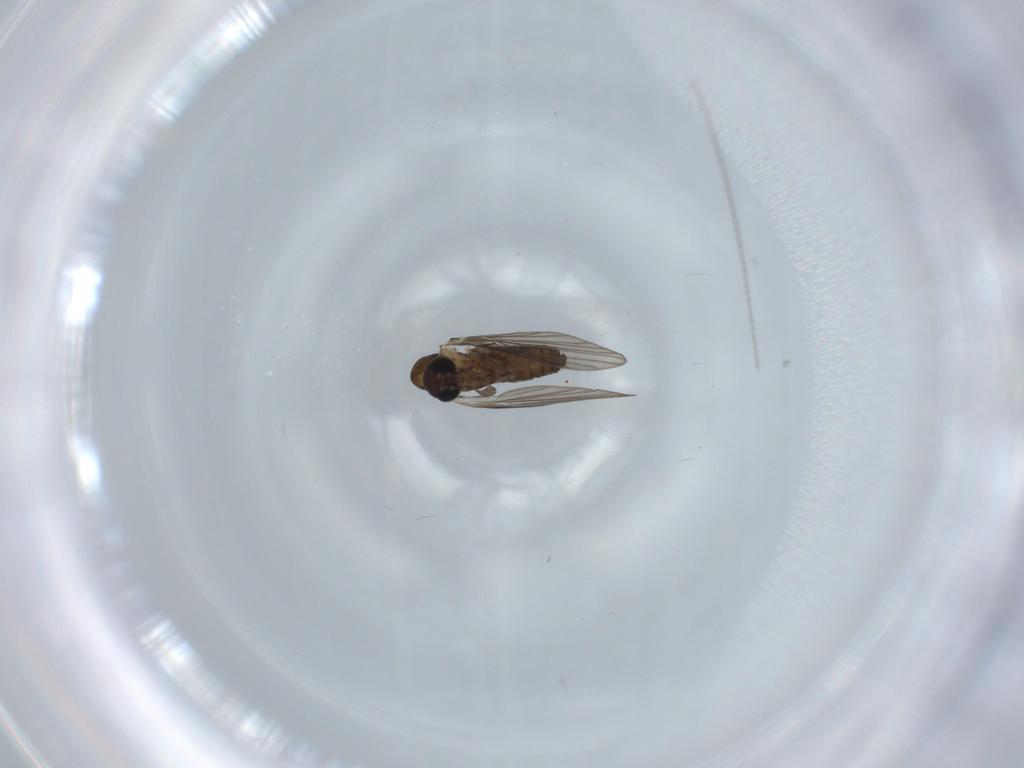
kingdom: Animalia
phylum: Arthropoda
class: Insecta
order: Diptera
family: Psychodidae
